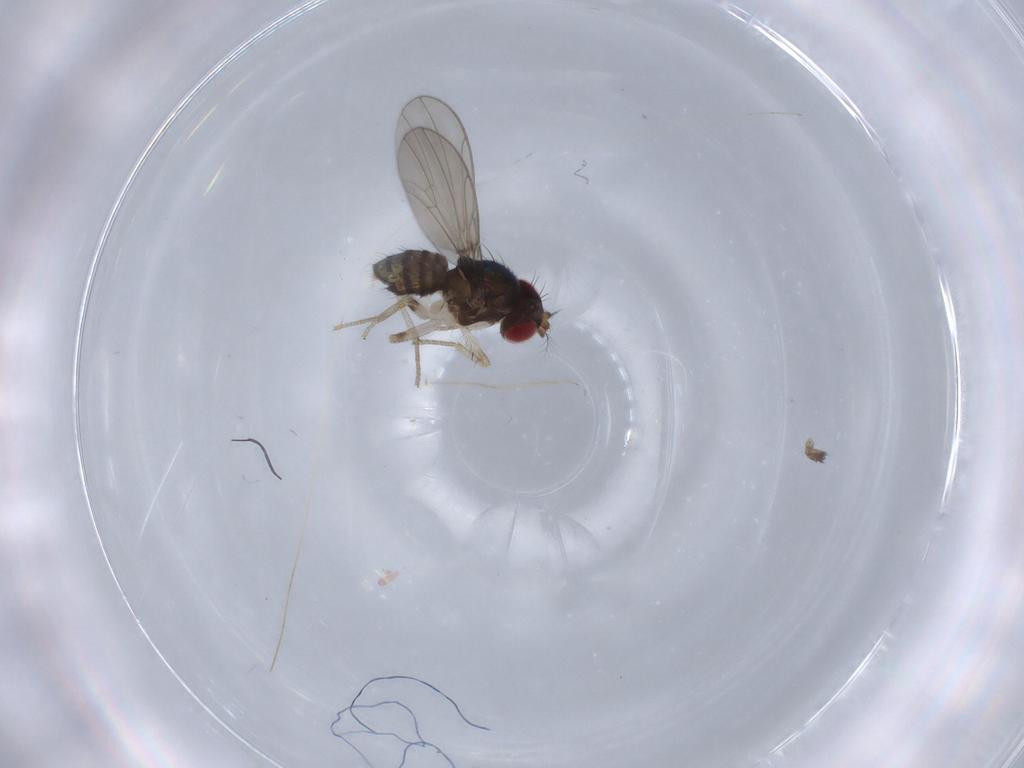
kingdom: Animalia
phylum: Arthropoda
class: Insecta
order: Diptera
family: Drosophilidae
